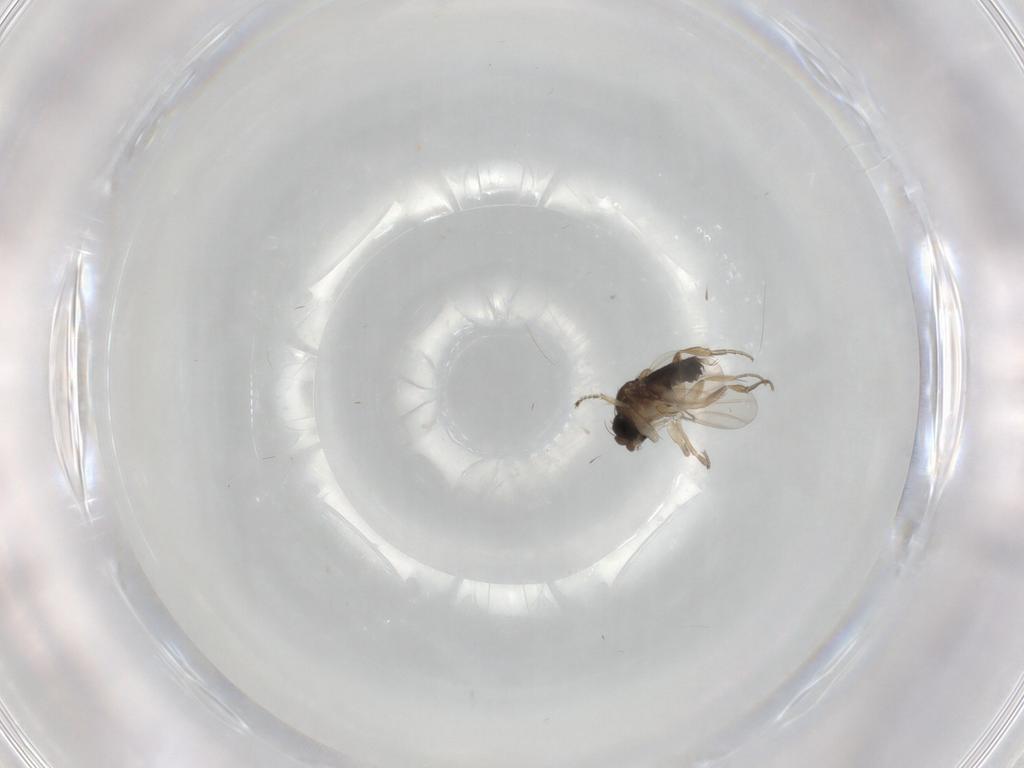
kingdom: Animalia
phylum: Arthropoda
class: Insecta
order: Diptera
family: Phoridae
